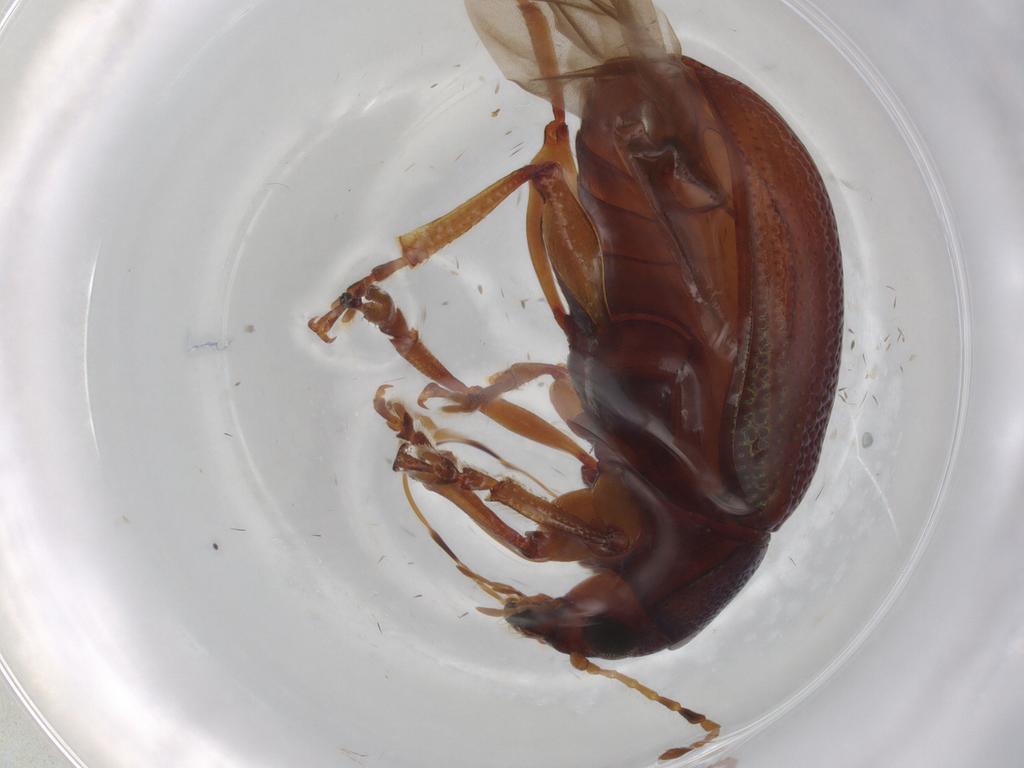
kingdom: Animalia
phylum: Arthropoda
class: Insecta
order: Coleoptera
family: Chrysomelidae
